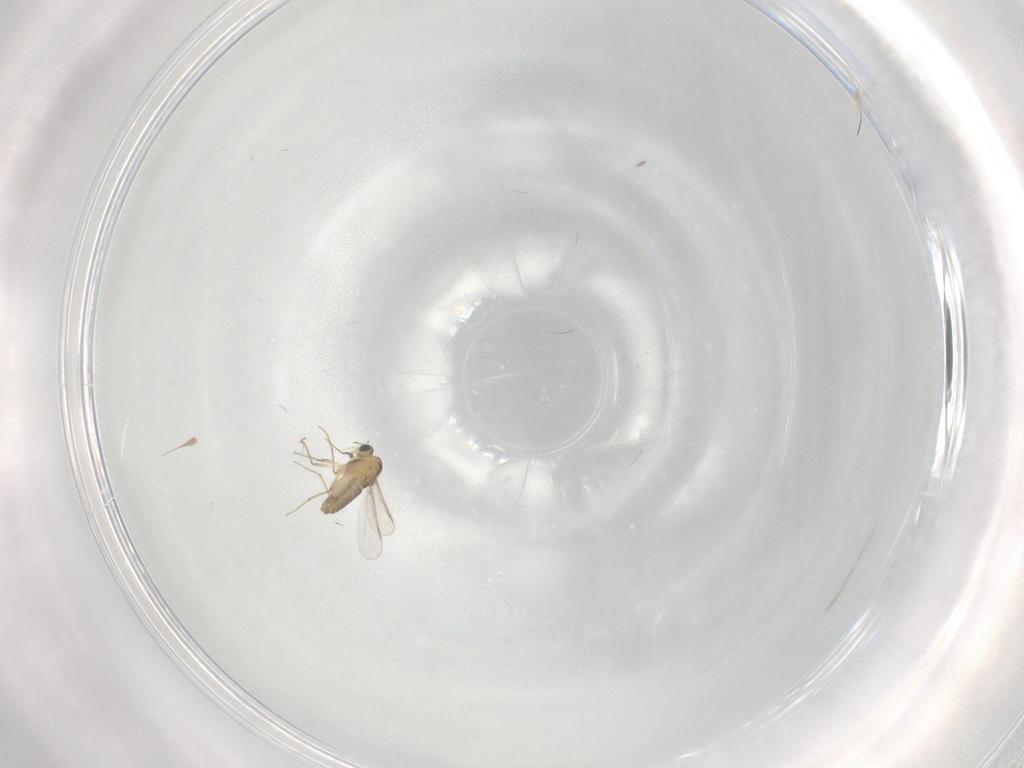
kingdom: Animalia
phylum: Arthropoda
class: Insecta
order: Diptera
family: Chironomidae
